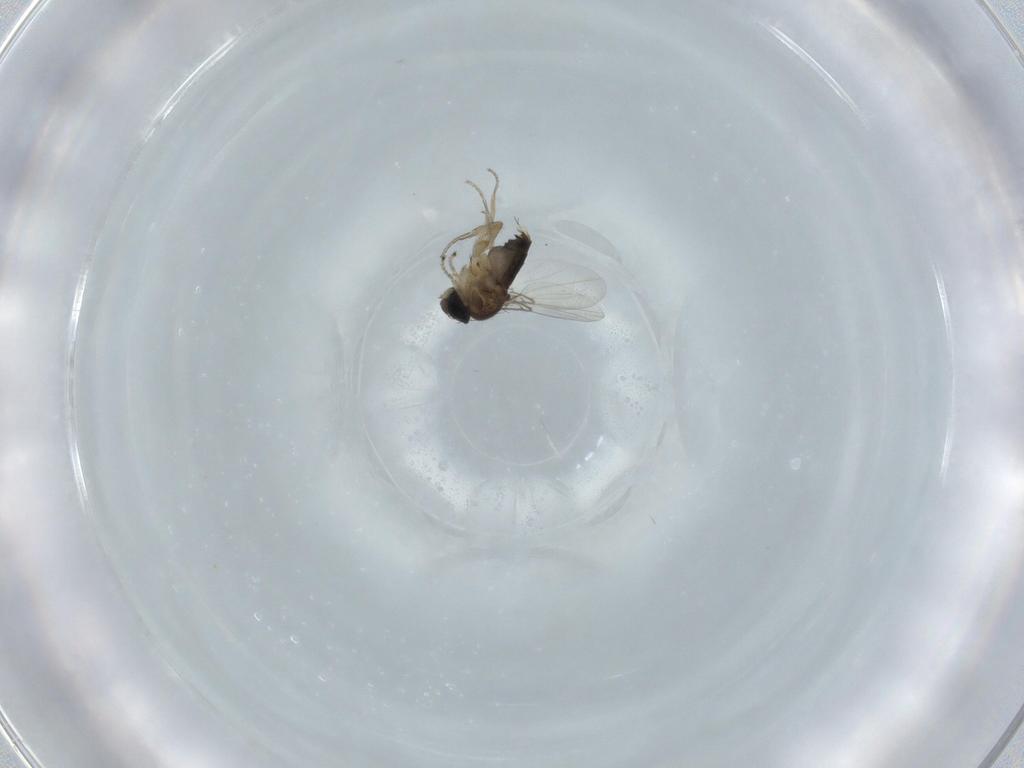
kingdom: Animalia
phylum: Arthropoda
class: Insecta
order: Diptera
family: Phoridae
